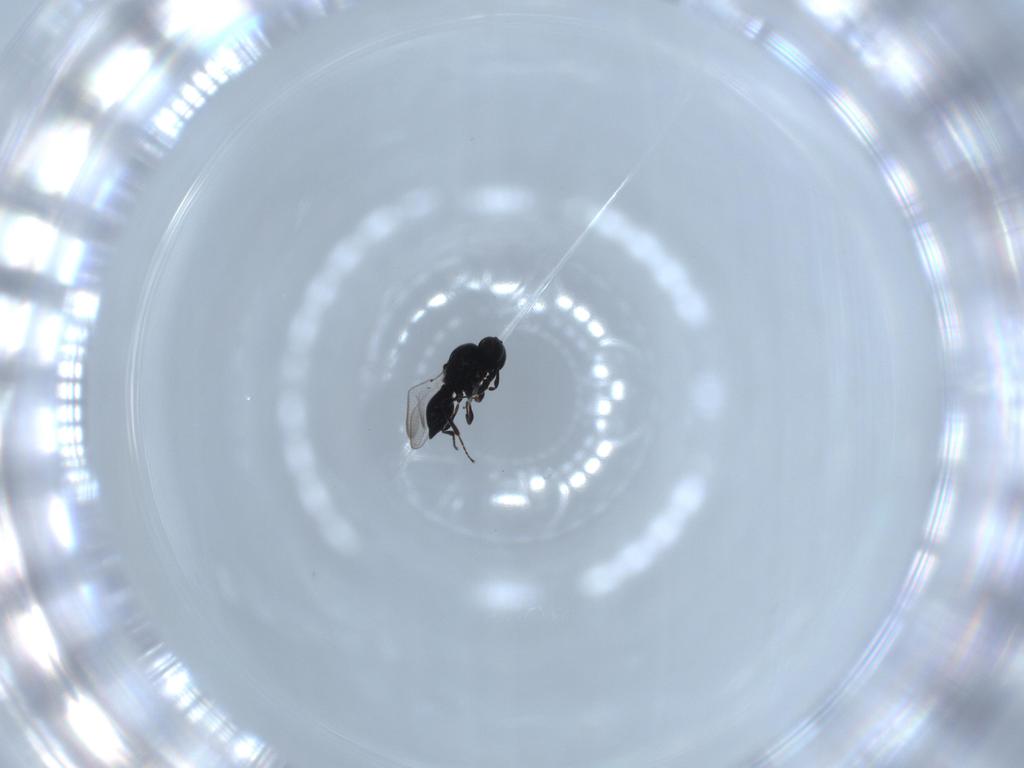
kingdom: Animalia
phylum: Arthropoda
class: Insecta
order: Hymenoptera
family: Platygastridae
